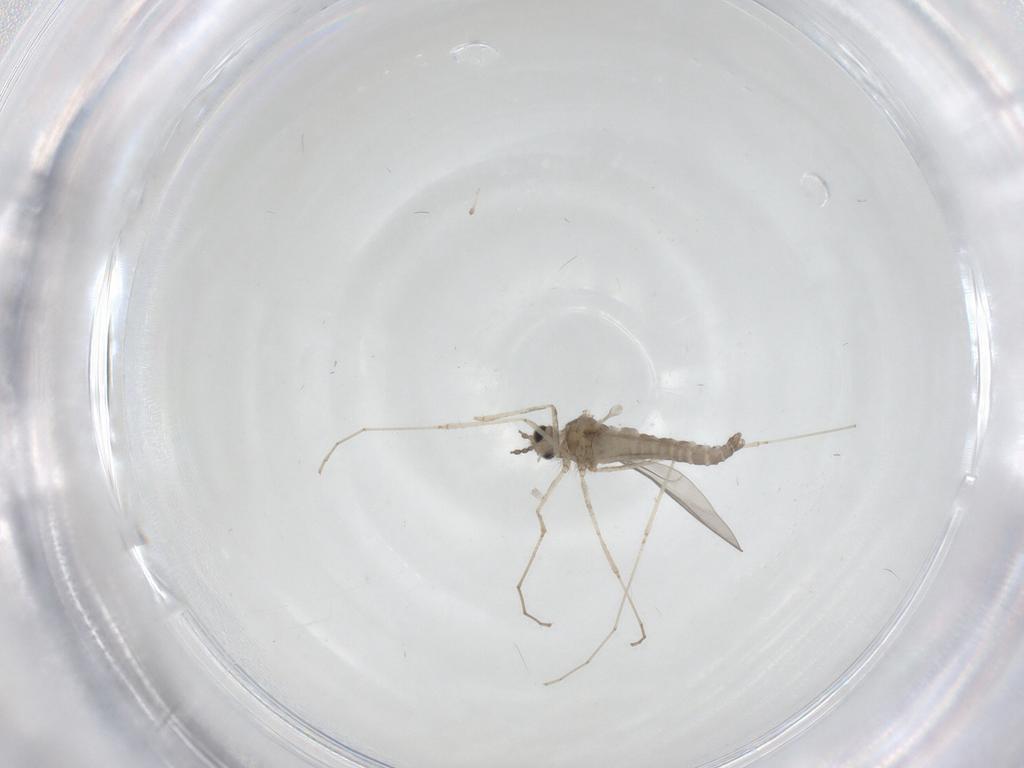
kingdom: Animalia
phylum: Arthropoda
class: Insecta
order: Diptera
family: Cecidomyiidae
